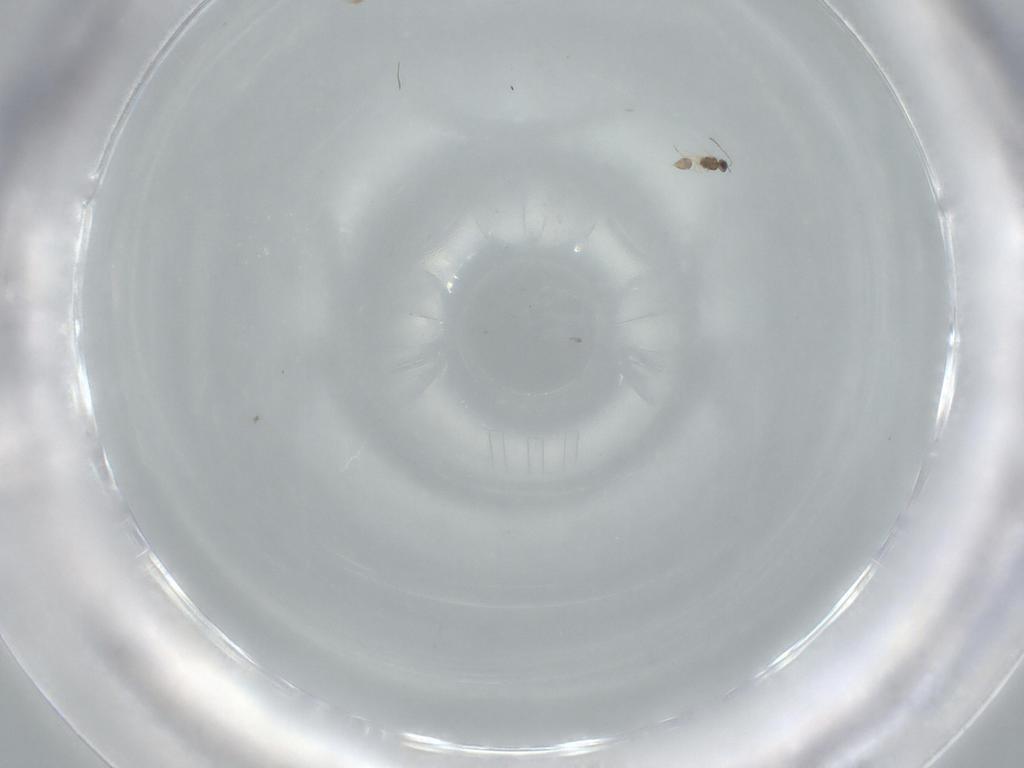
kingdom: Animalia
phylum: Arthropoda
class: Insecta
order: Hymenoptera
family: Mymarommatidae
